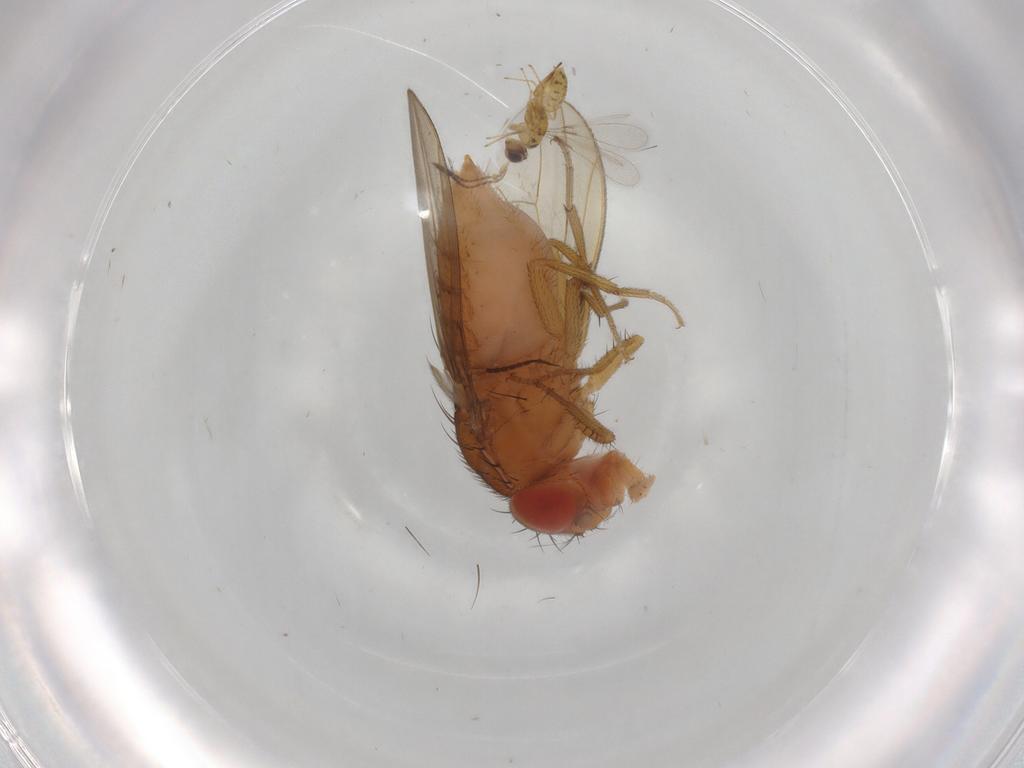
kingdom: Animalia
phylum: Arthropoda
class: Insecta
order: Diptera
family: Drosophilidae
